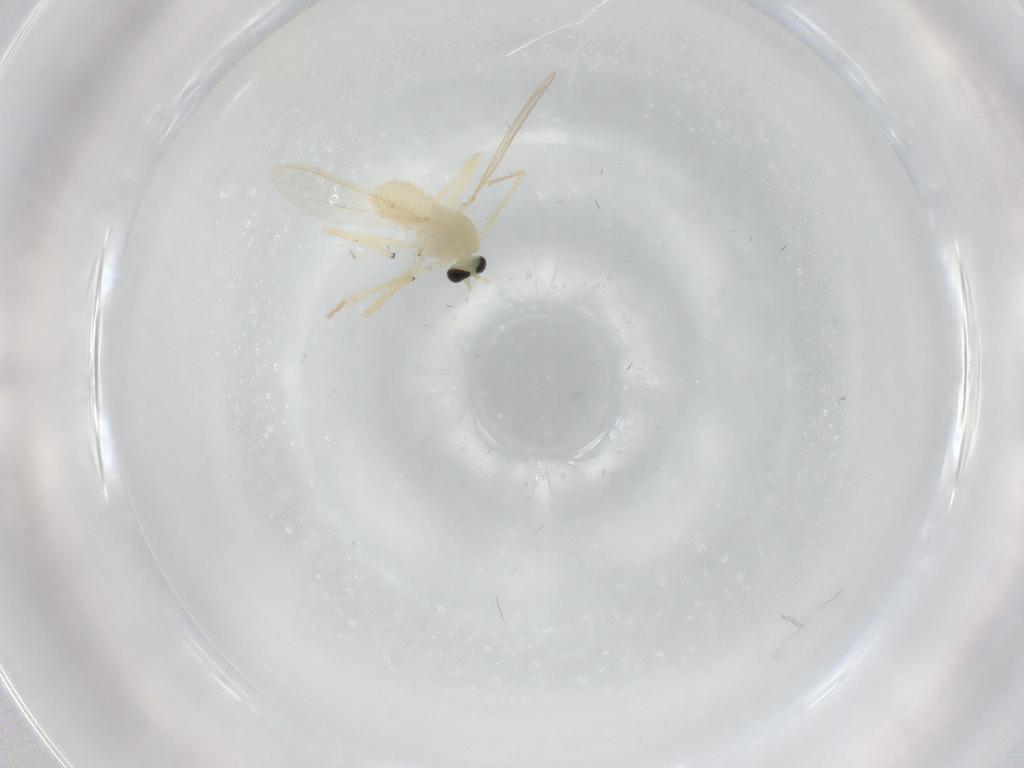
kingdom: Animalia
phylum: Arthropoda
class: Insecta
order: Diptera
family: Chironomidae
